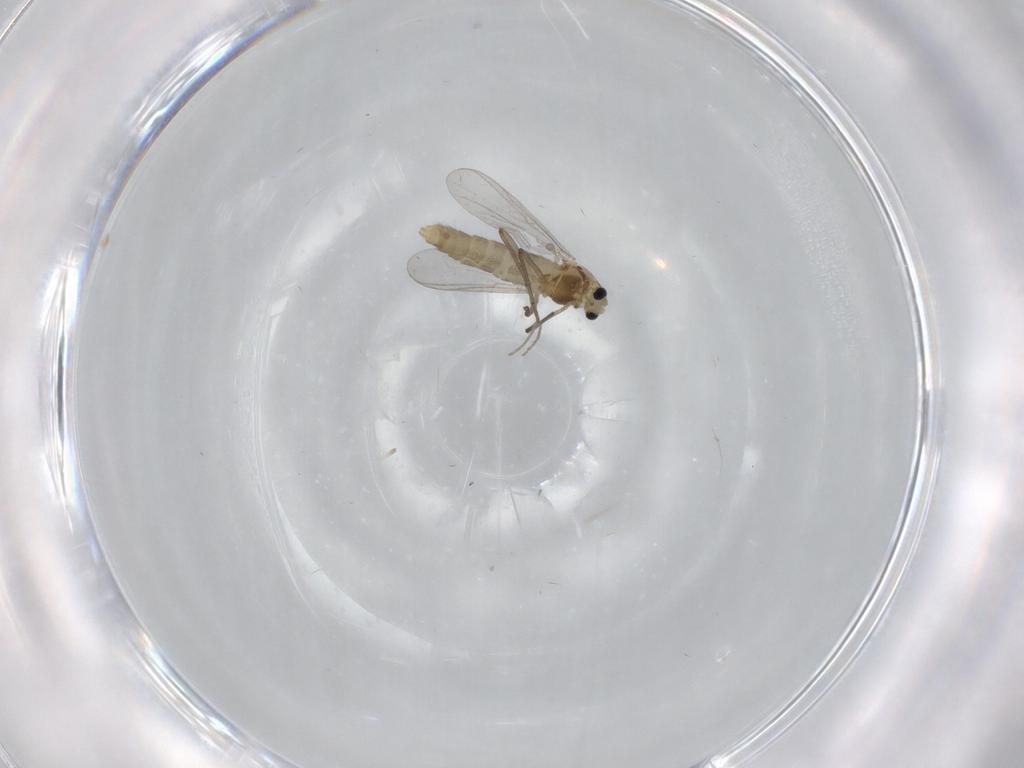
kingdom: Animalia
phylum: Arthropoda
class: Insecta
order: Diptera
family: Chironomidae
